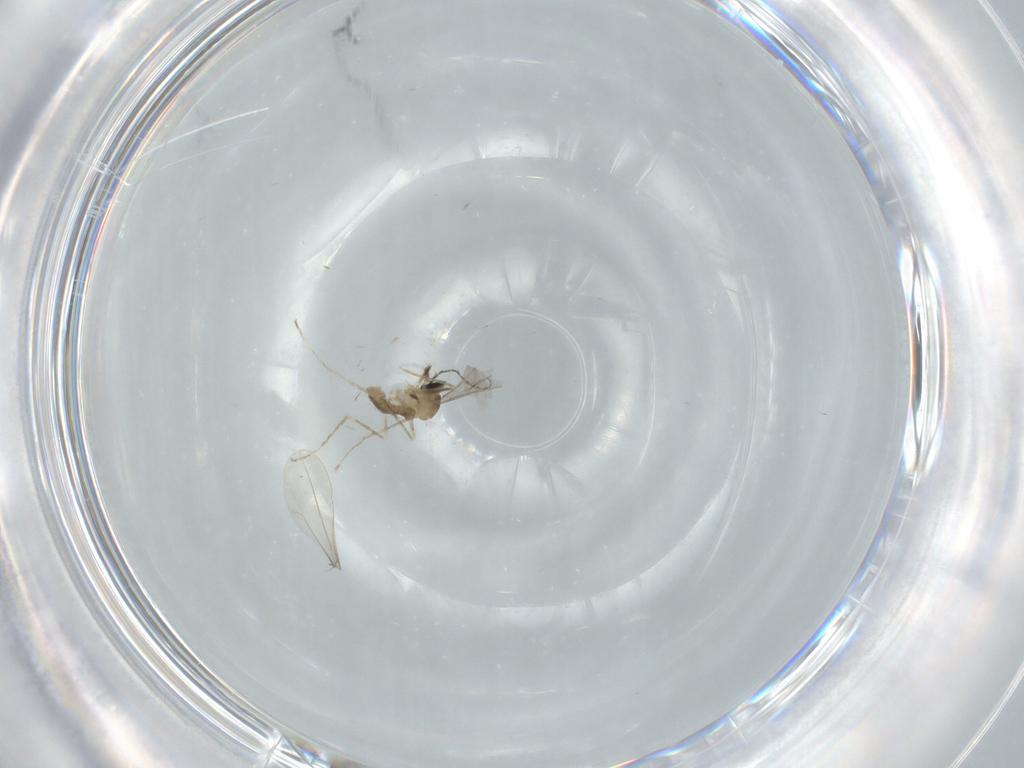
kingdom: Animalia
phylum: Arthropoda
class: Insecta
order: Diptera
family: Cecidomyiidae
